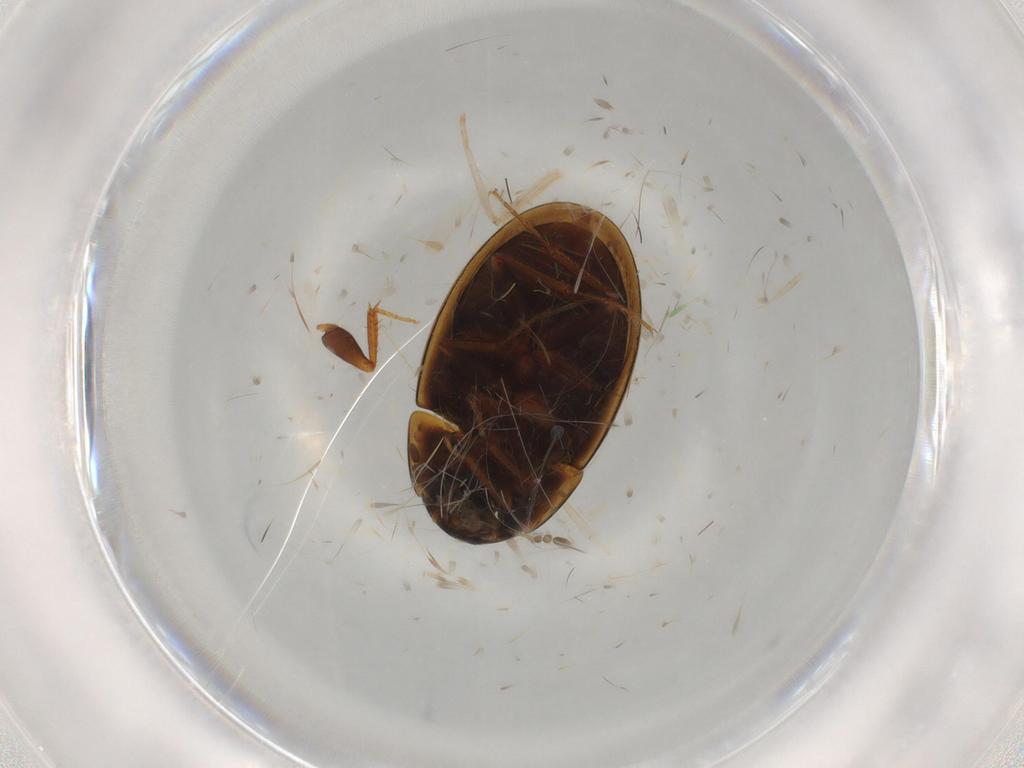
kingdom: Animalia
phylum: Arthropoda
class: Insecta
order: Coleoptera
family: Hydrophilidae
